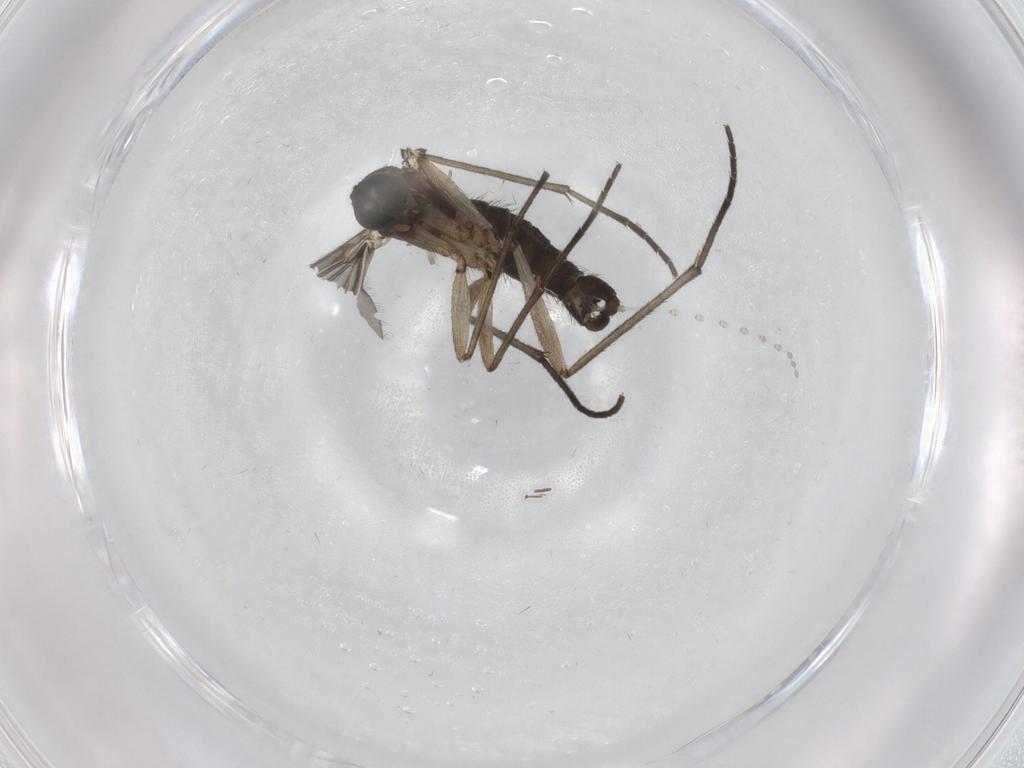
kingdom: Animalia
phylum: Arthropoda
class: Insecta
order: Diptera
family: Sciaridae
